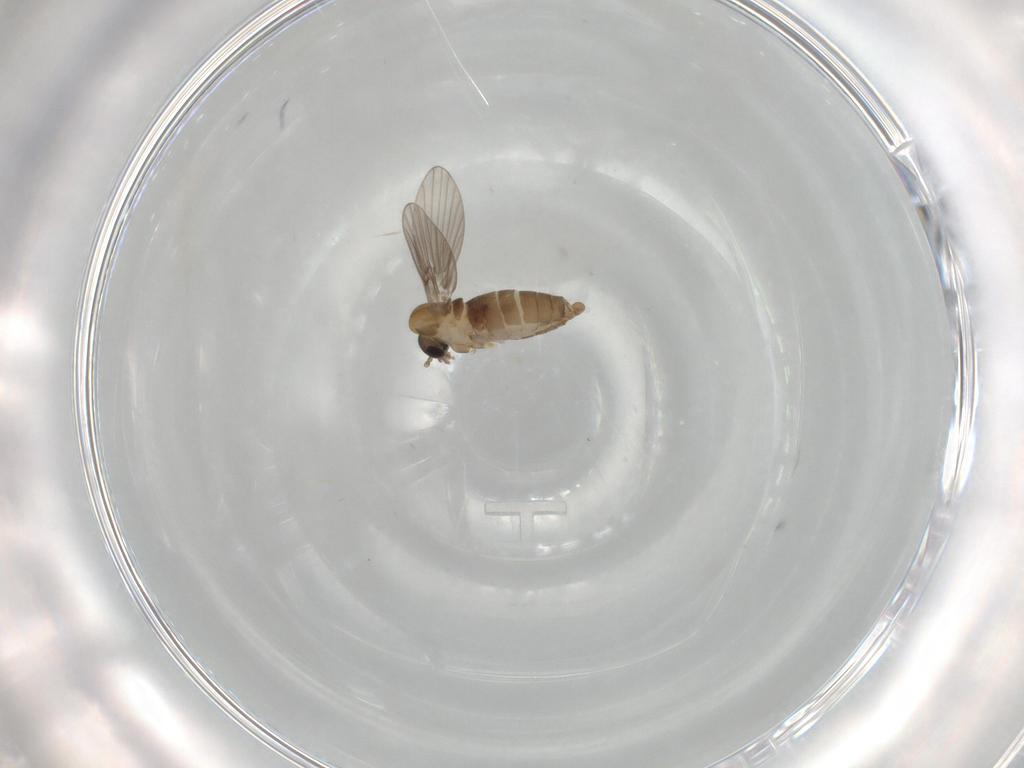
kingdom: Animalia
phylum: Arthropoda
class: Insecta
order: Diptera
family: Psychodidae
